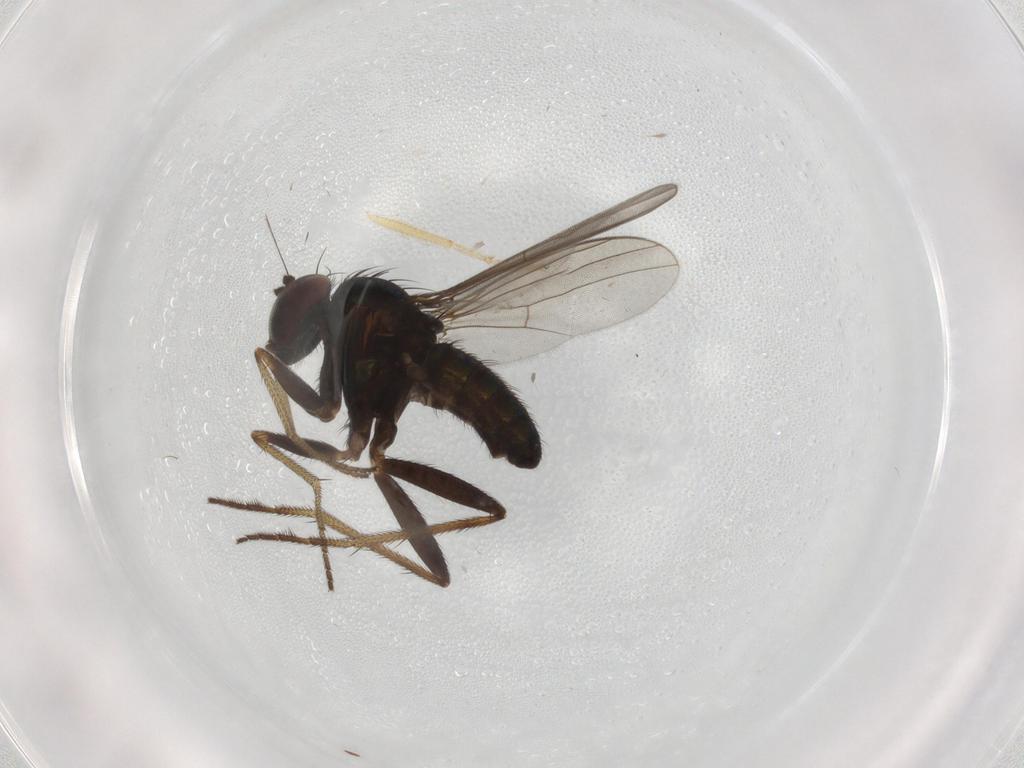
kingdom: Animalia
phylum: Arthropoda
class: Insecta
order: Diptera
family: Hybotidae
